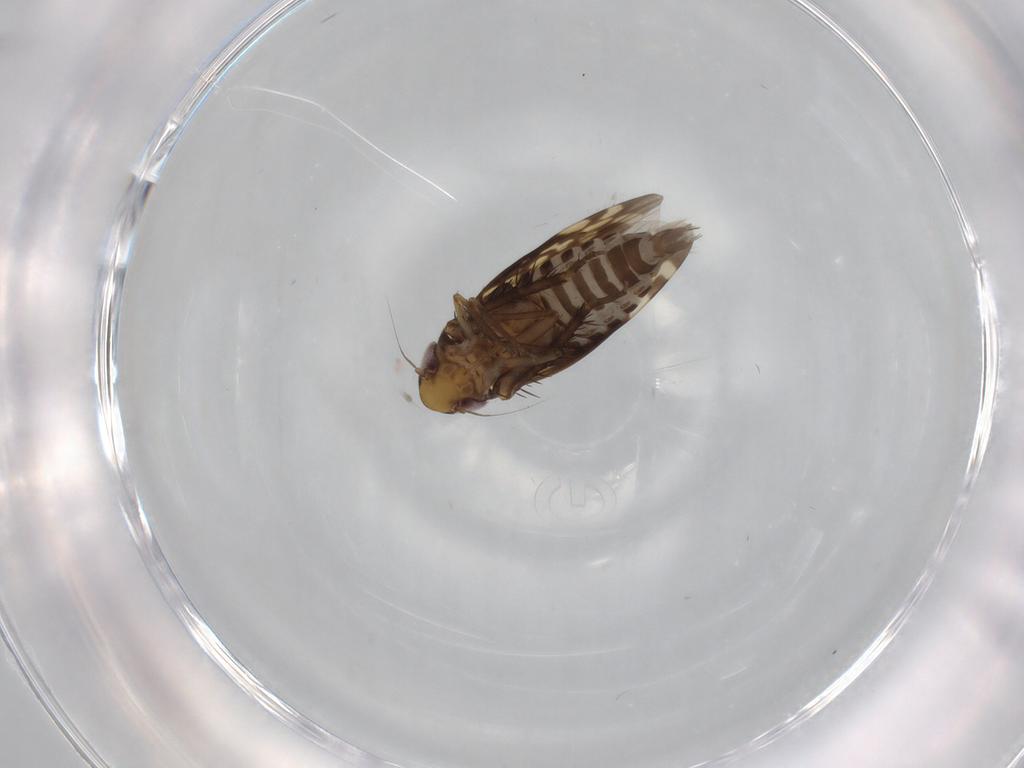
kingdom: Animalia
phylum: Arthropoda
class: Insecta
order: Hemiptera
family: Cicadellidae
